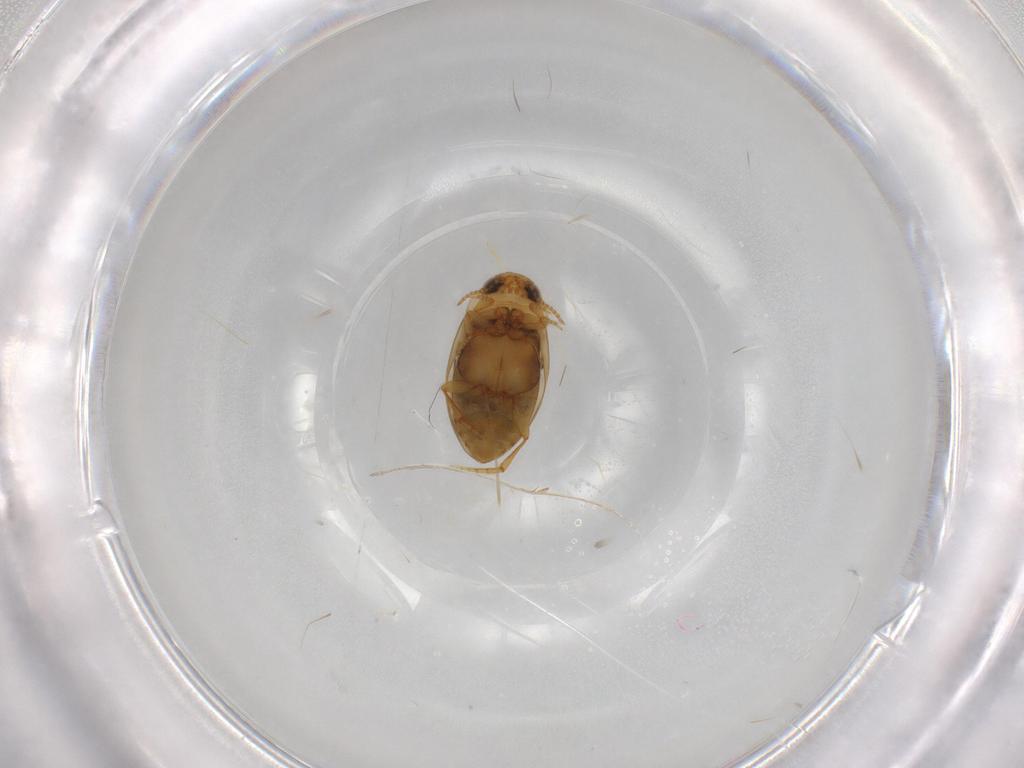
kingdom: Animalia
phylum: Arthropoda
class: Insecta
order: Coleoptera
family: Dytiscidae
